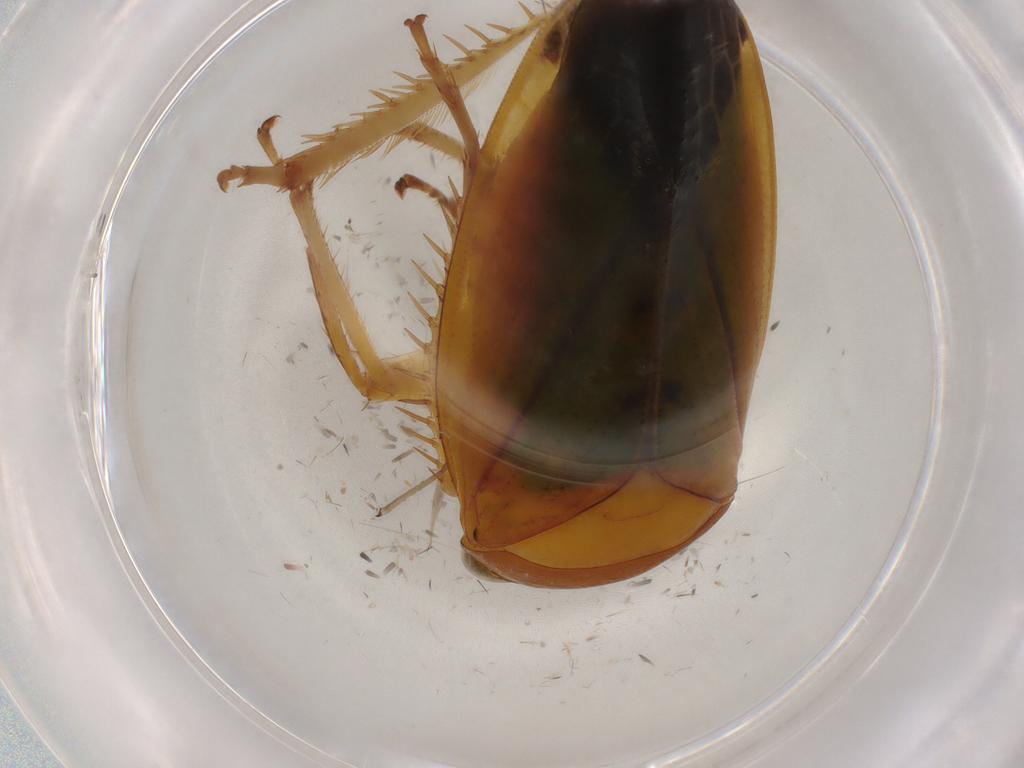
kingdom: Animalia
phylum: Arthropoda
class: Insecta
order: Hemiptera
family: Cicadellidae
